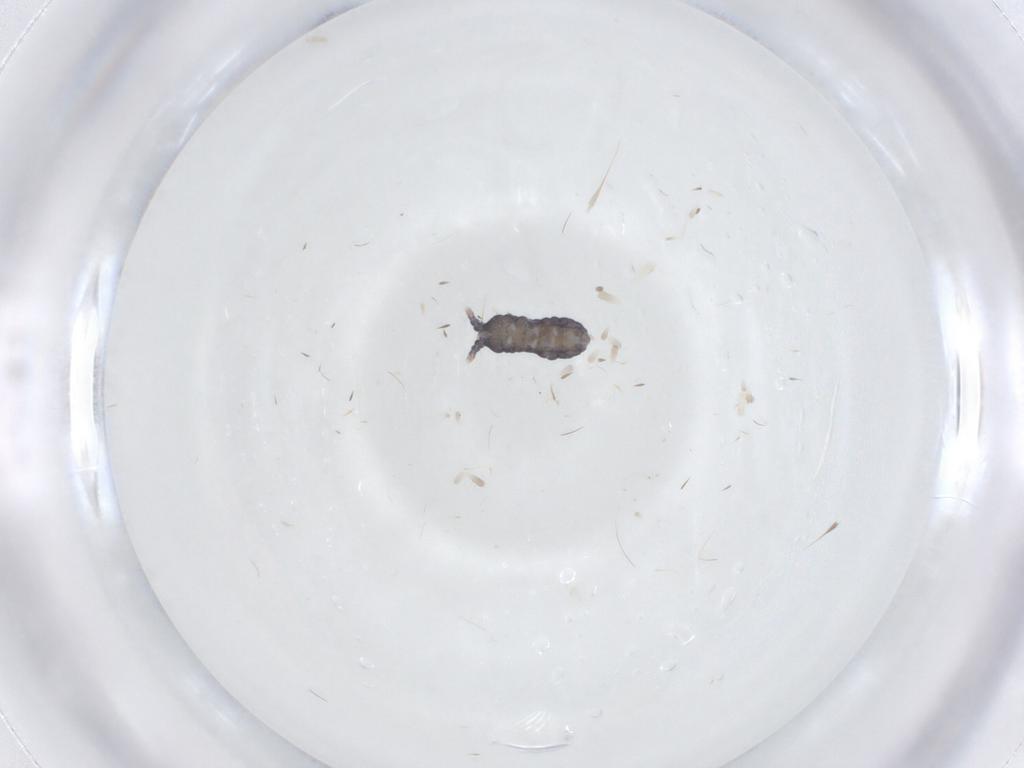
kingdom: Animalia
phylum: Arthropoda
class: Collembola
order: Poduromorpha
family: Neanuridae
